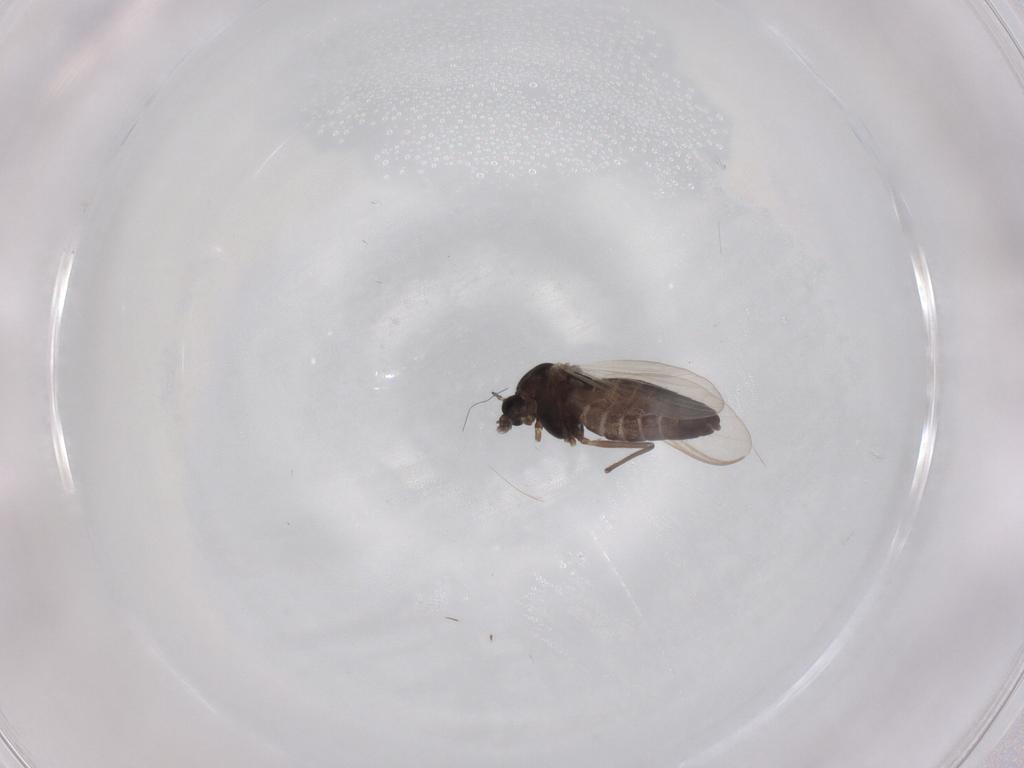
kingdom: Animalia
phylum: Arthropoda
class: Insecta
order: Diptera
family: Chironomidae
